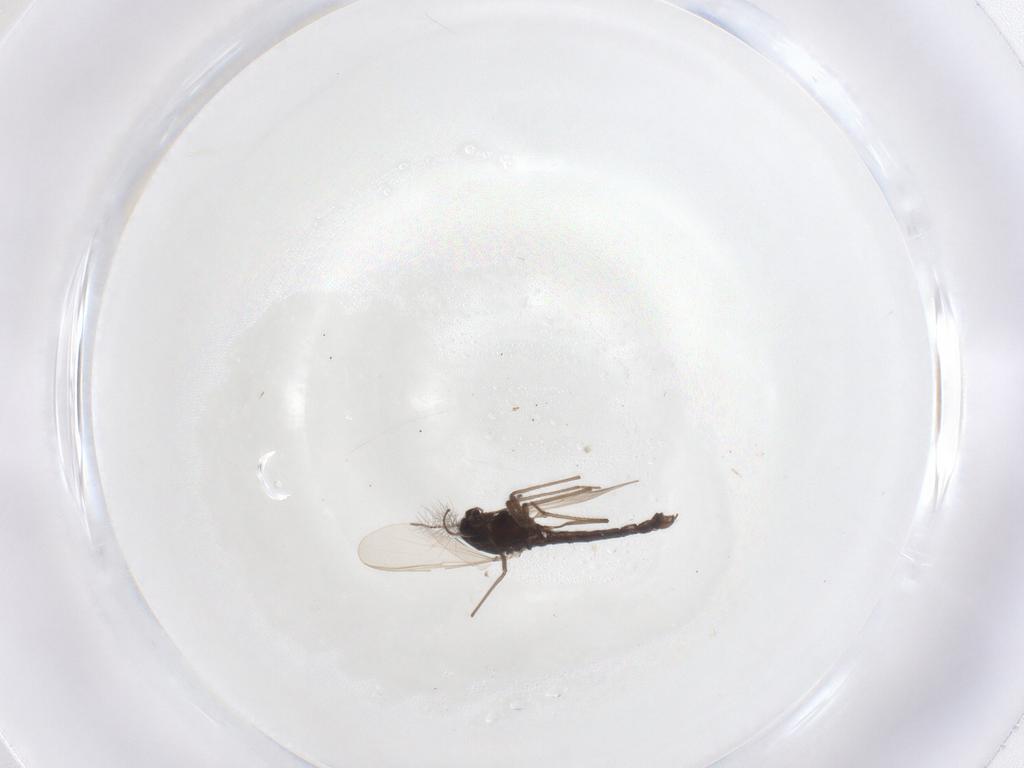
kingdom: Animalia
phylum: Arthropoda
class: Insecta
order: Diptera
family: Chironomidae
